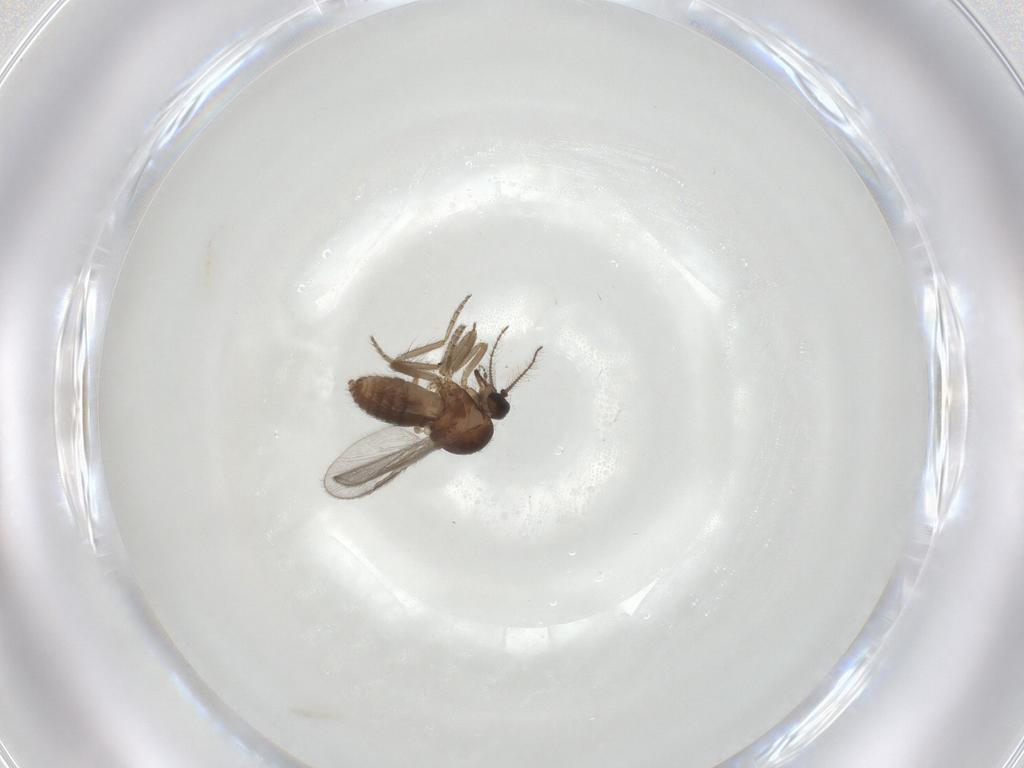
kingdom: Animalia
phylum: Arthropoda
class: Insecta
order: Diptera
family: Ceratopogonidae
